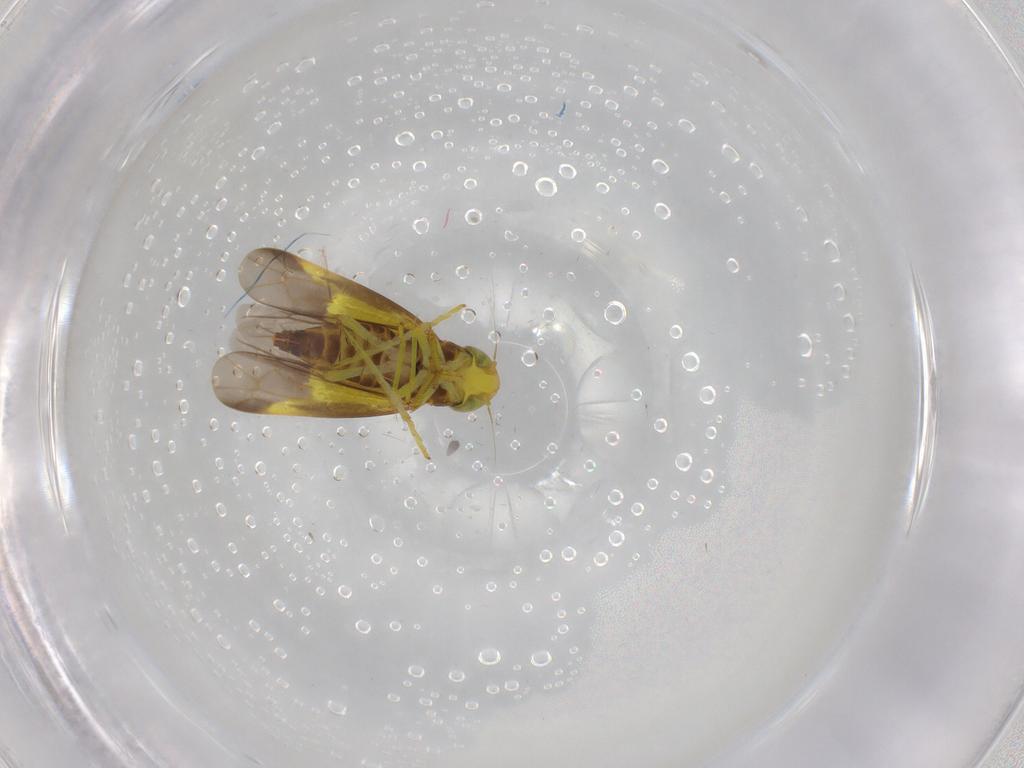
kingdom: Animalia
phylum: Arthropoda
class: Insecta
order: Hemiptera
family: Cicadellidae
